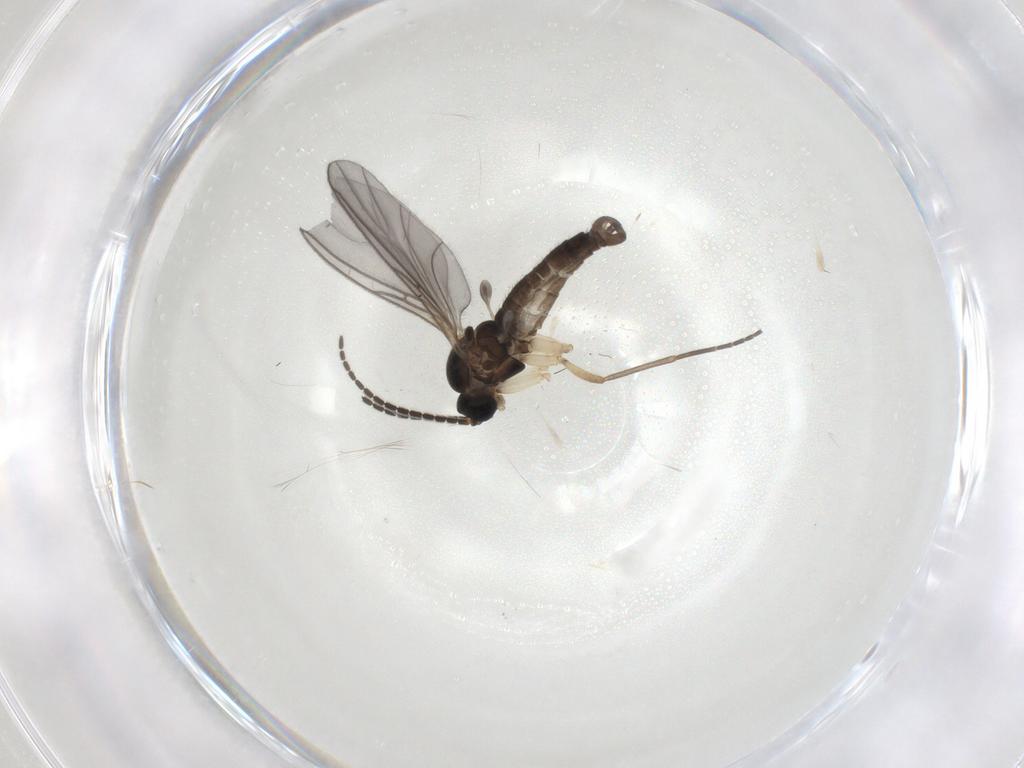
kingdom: Animalia
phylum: Arthropoda
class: Insecta
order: Diptera
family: Sciaridae
